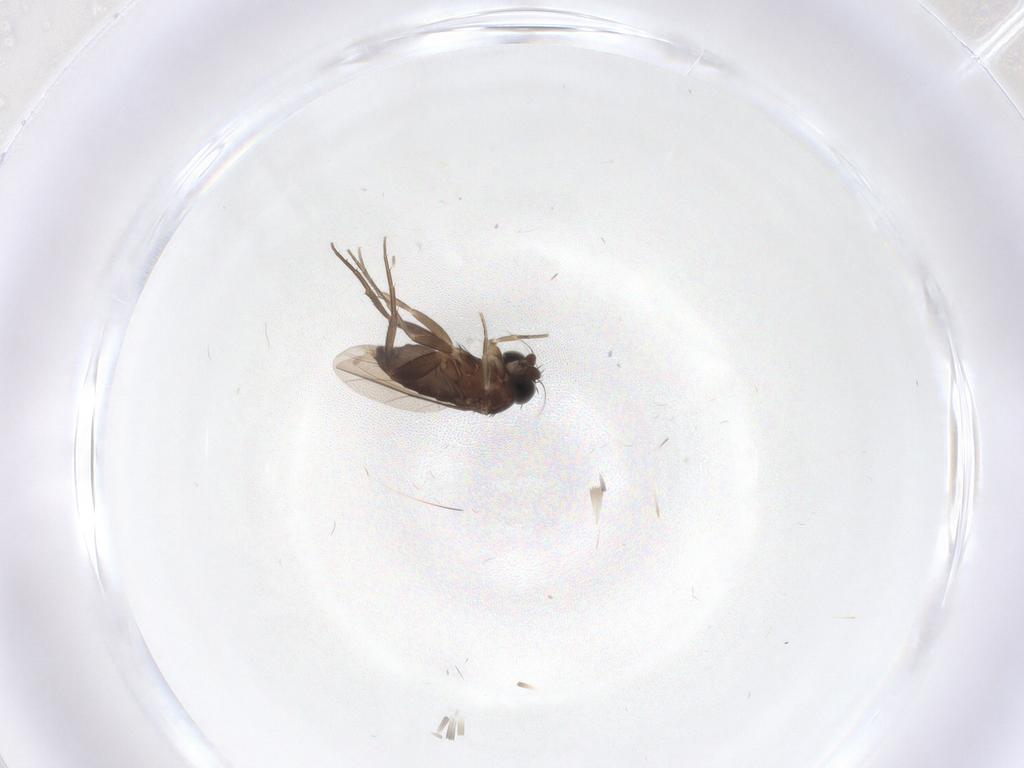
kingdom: Animalia
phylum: Arthropoda
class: Insecta
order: Diptera
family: Phoridae
